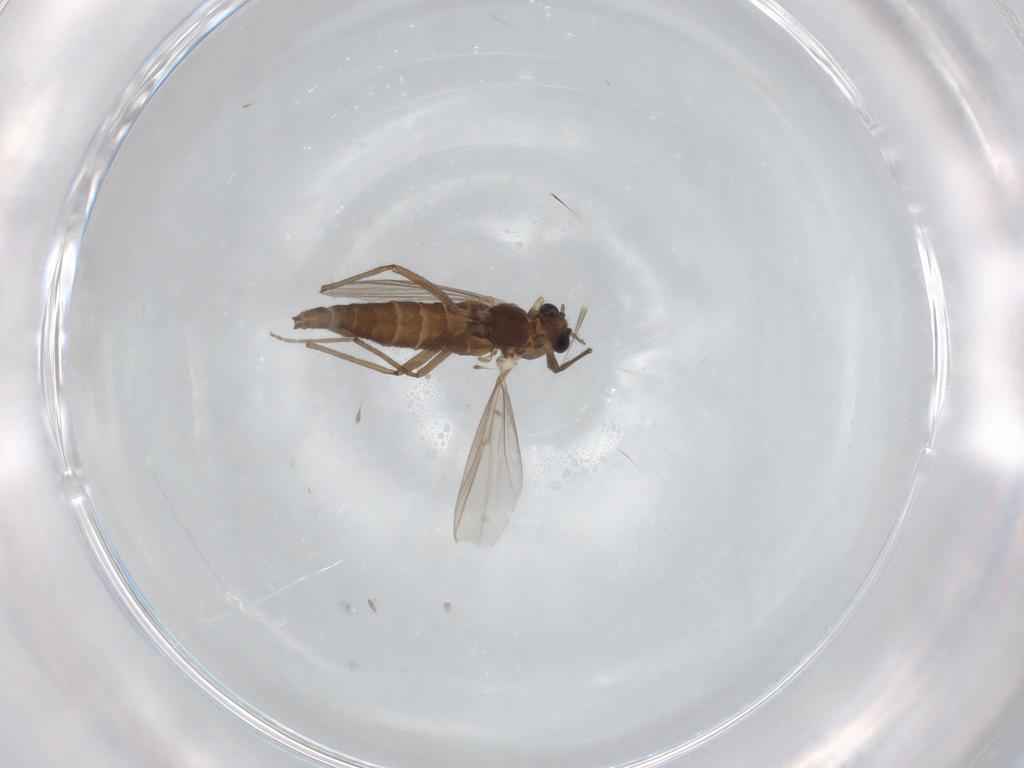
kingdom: Animalia
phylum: Arthropoda
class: Insecta
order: Diptera
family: Chironomidae
